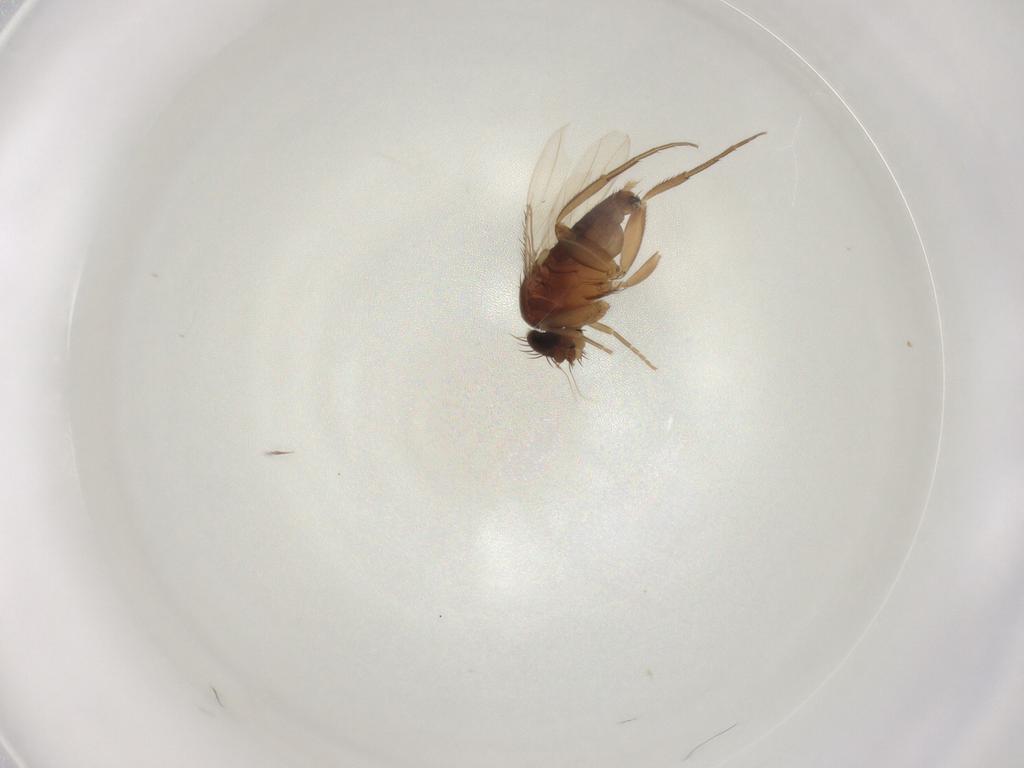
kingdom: Animalia
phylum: Arthropoda
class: Insecta
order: Diptera
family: Phoridae
